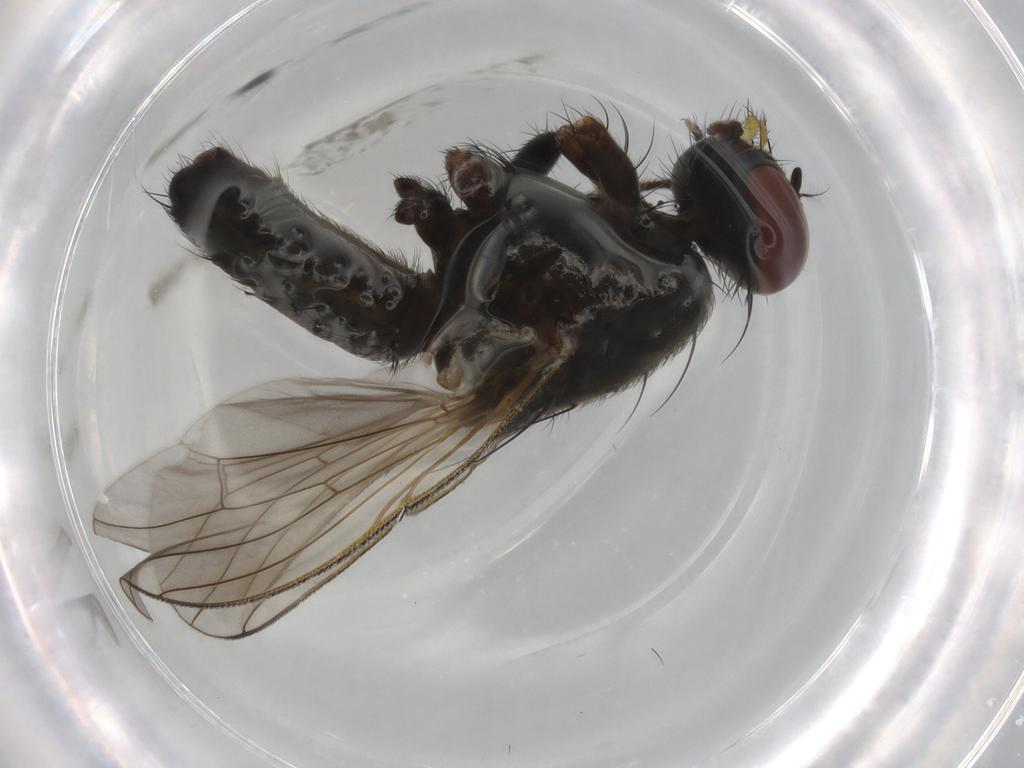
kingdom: Animalia
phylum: Arthropoda
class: Insecta
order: Diptera
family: Muscidae
